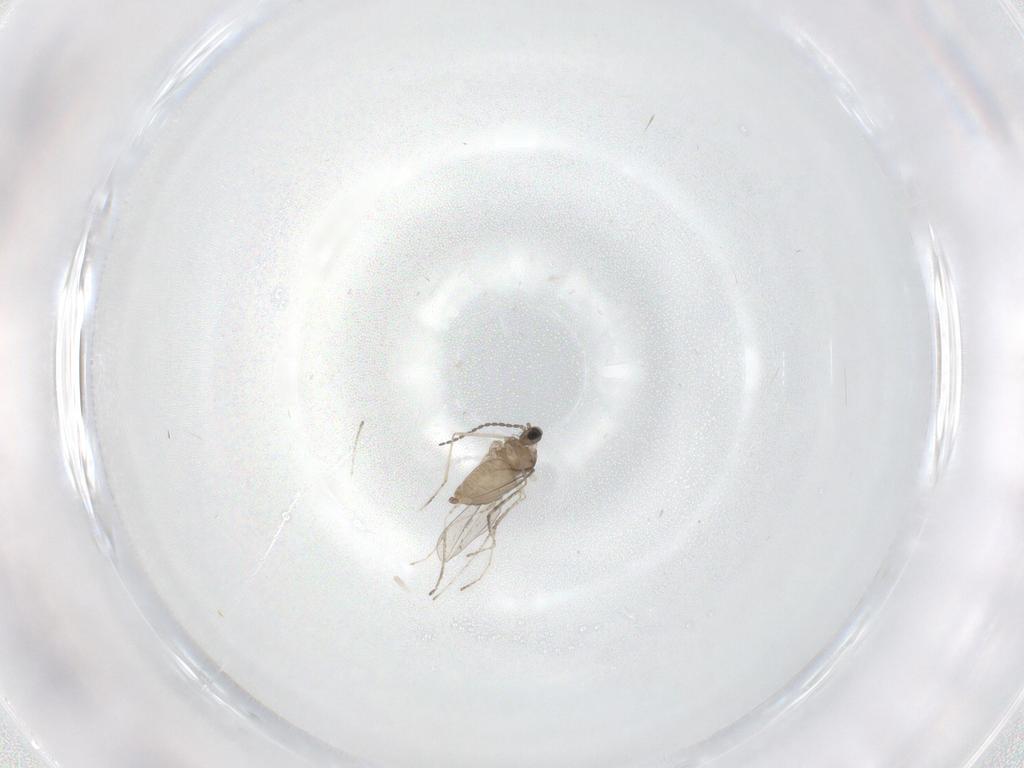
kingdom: Animalia
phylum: Arthropoda
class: Insecta
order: Diptera
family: Cecidomyiidae
